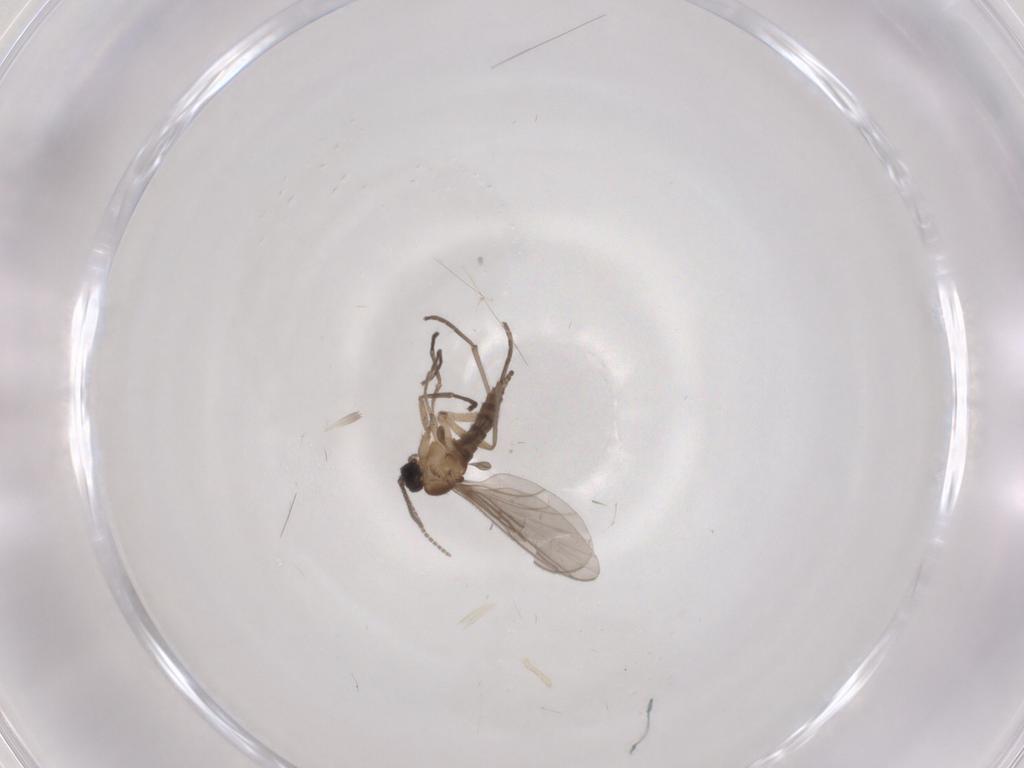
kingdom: Animalia
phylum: Arthropoda
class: Insecta
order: Diptera
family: Sciaridae
